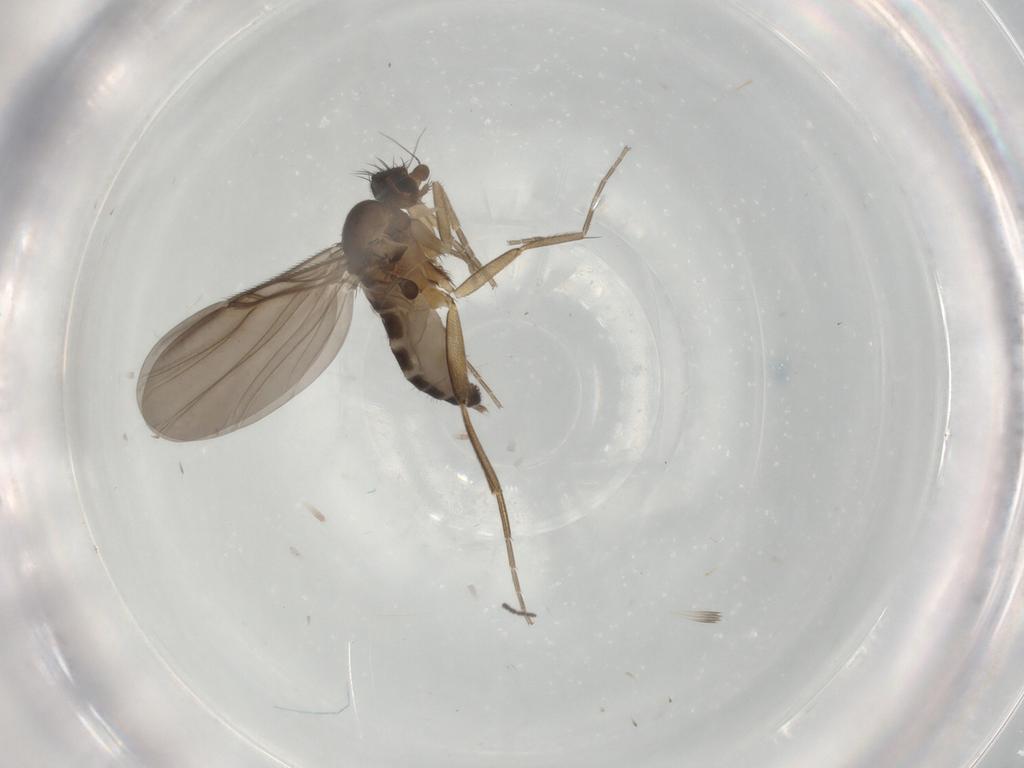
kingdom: Animalia
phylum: Arthropoda
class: Insecta
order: Diptera
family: Phoridae
